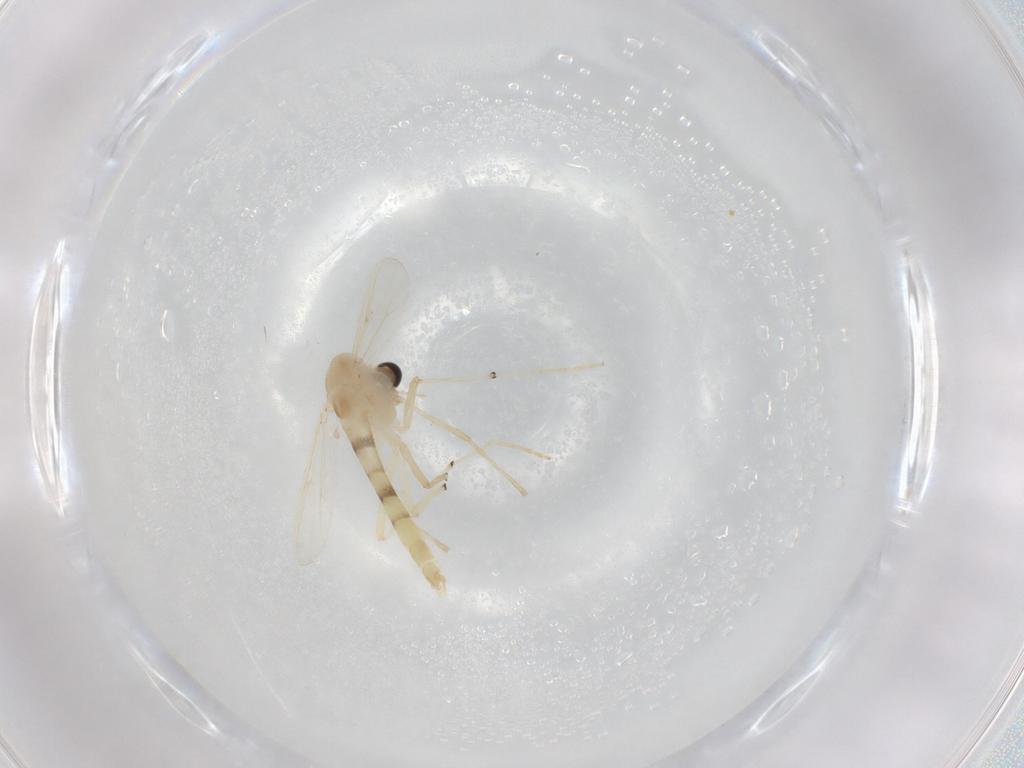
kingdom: Animalia
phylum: Arthropoda
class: Insecta
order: Diptera
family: Chironomidae
